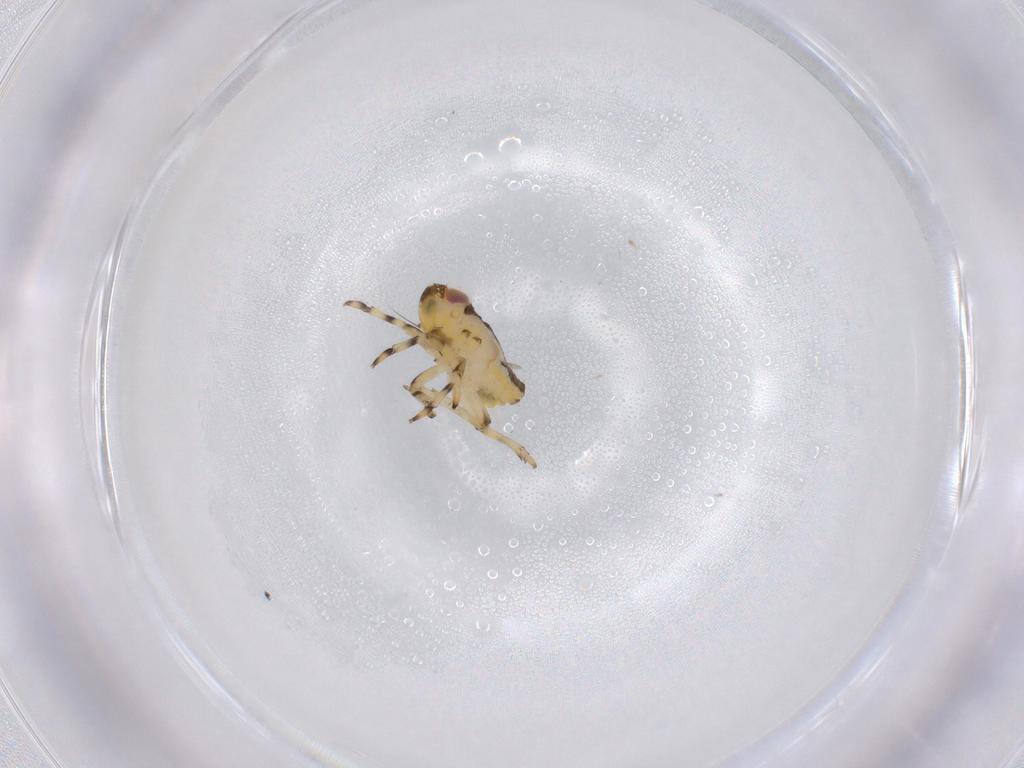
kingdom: Animalia
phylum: Arthropoda
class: Insecta
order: Hemiptera
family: Issidae
